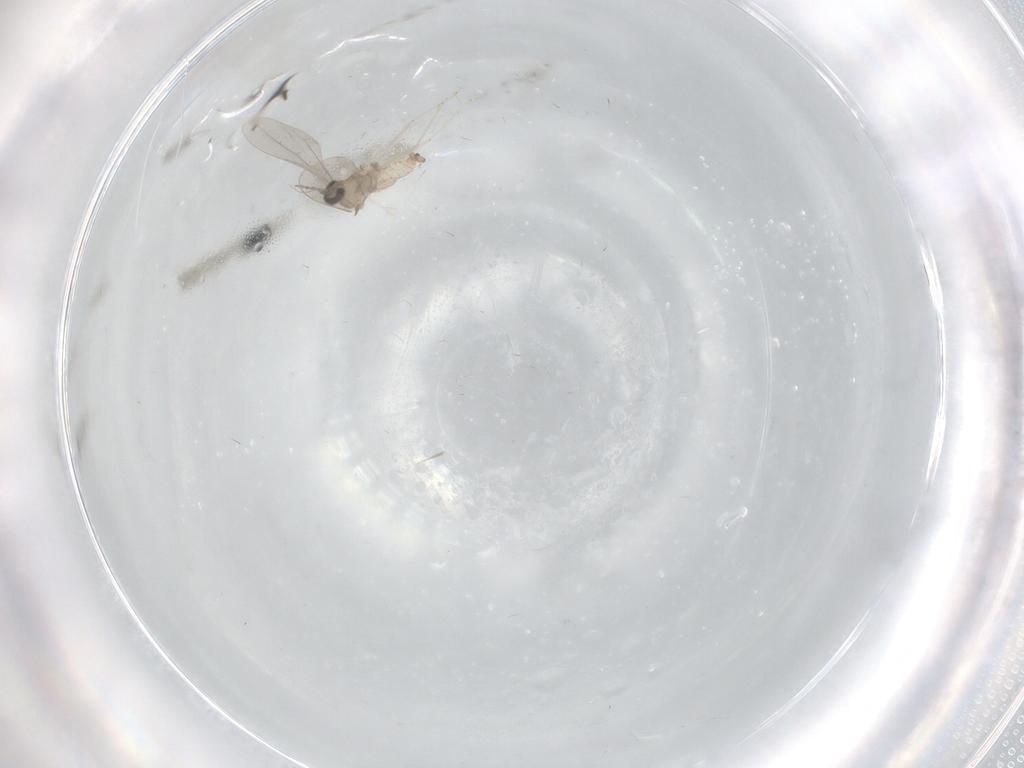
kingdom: Animalia
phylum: Arthropoda
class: Insecta
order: Diptera
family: Cecidomyiidae
